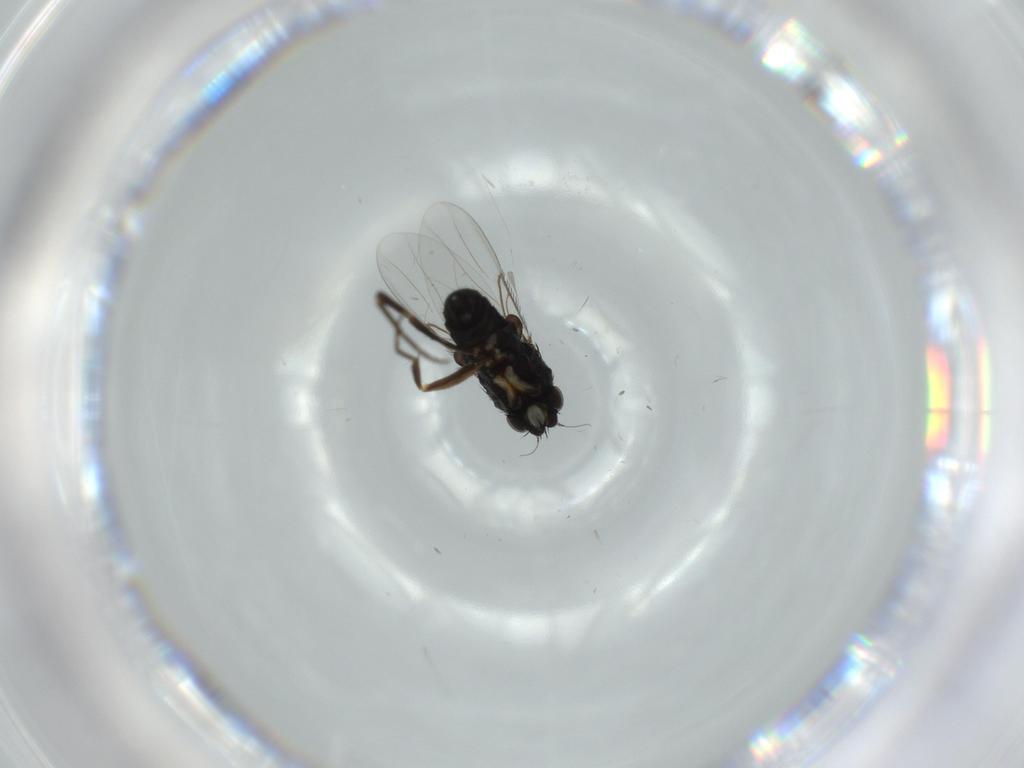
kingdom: Animalia
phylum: Arthropoda
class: Insecta
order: Diptera
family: Phoridae
